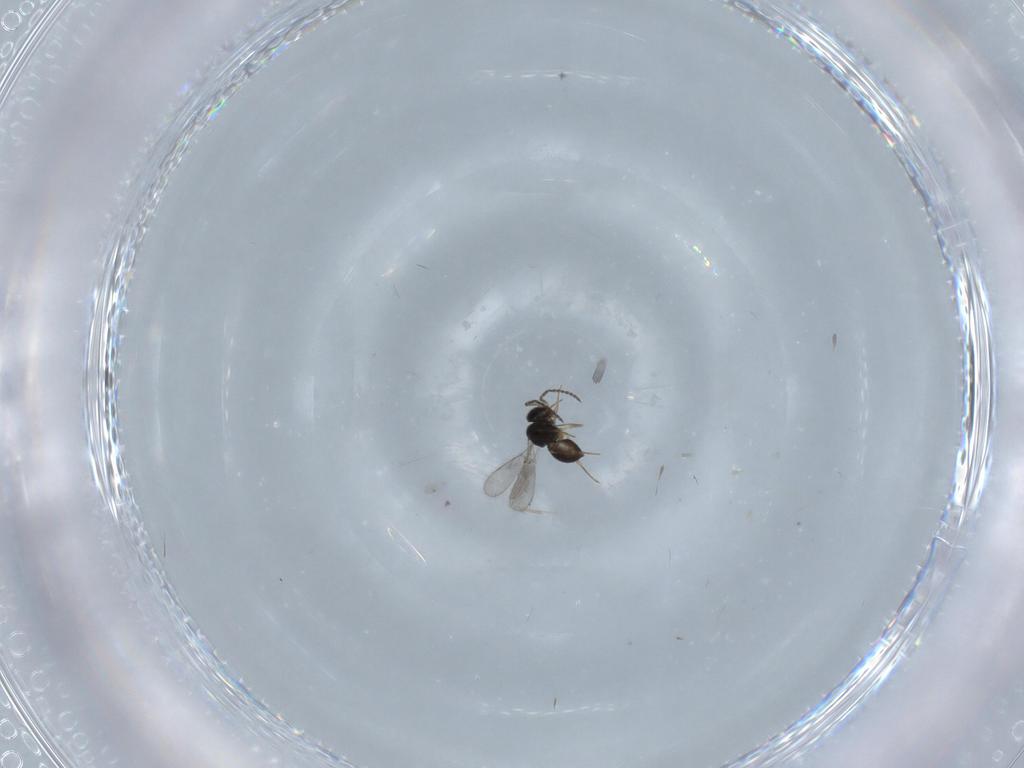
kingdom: Animalia
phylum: Arthropoda
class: Insecta
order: Hymenoptera
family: Scelionidae
